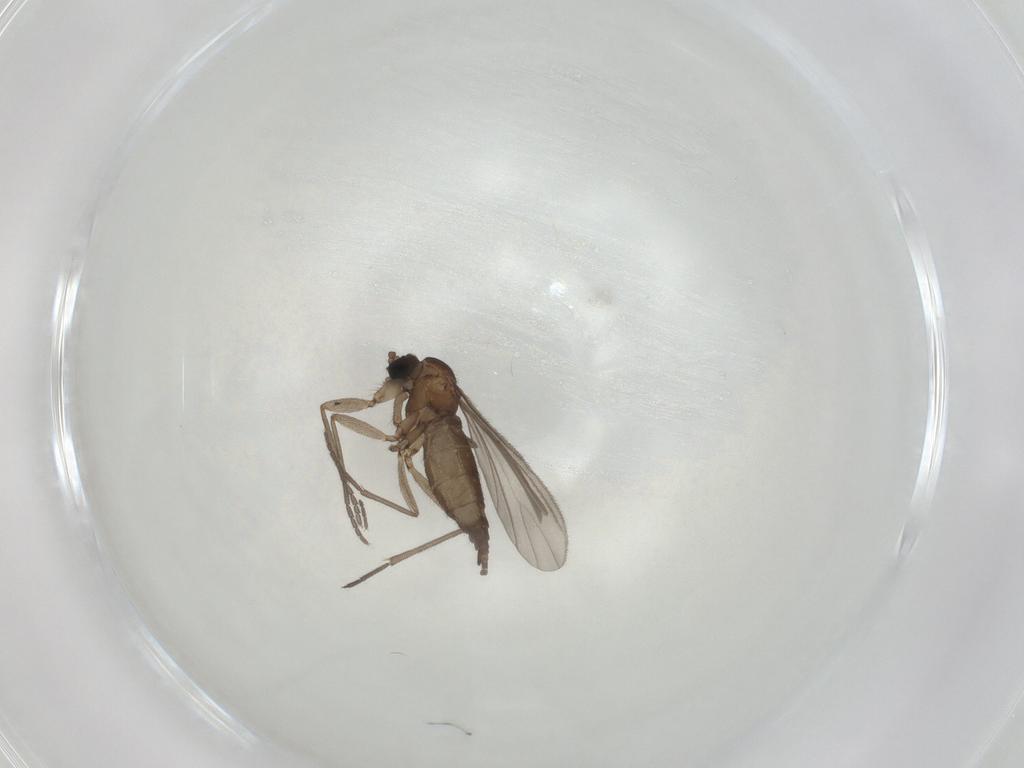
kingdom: Animalia
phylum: Arthropoda
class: Insecta
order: Diptera
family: Sciaridae
